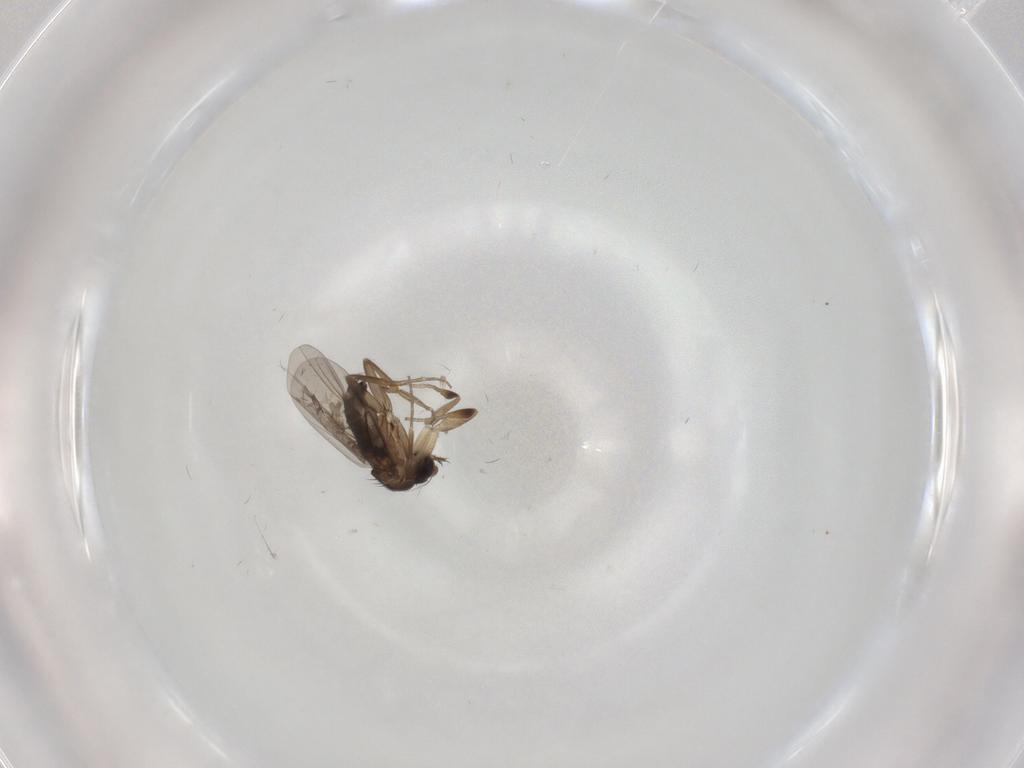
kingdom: Animalia
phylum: Arthropoda
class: Insecta
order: Diptera
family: Phoridae
